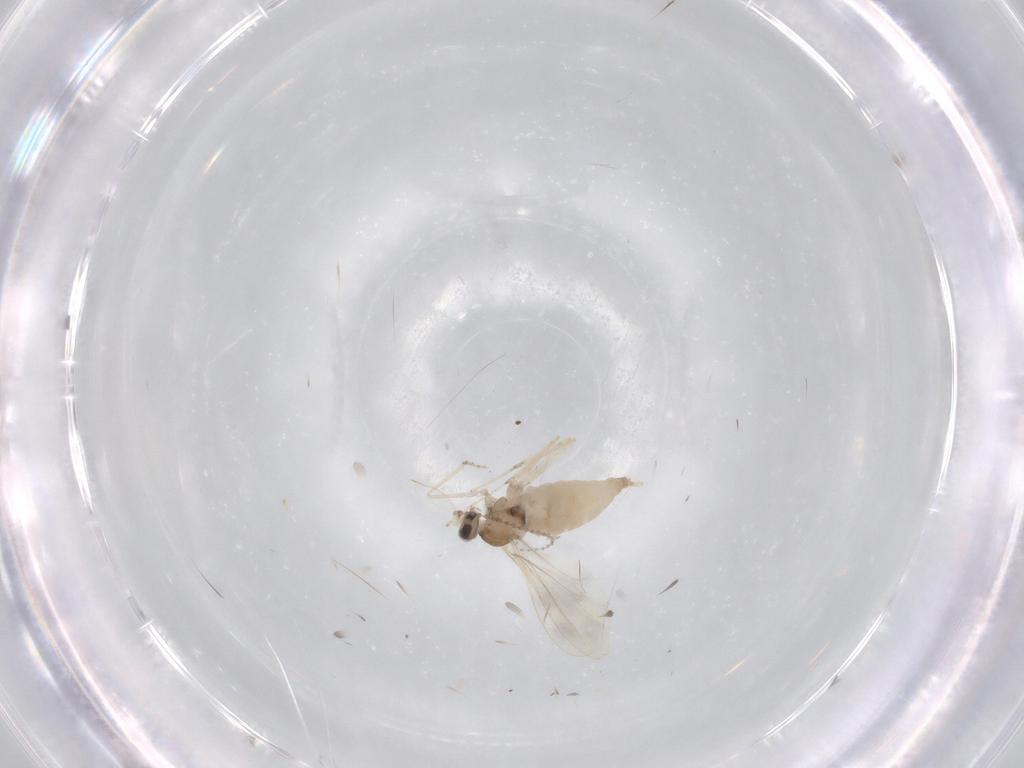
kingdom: Animalia
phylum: Arthropoda
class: Insecta
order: Diptera
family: Cecidomyiidae
